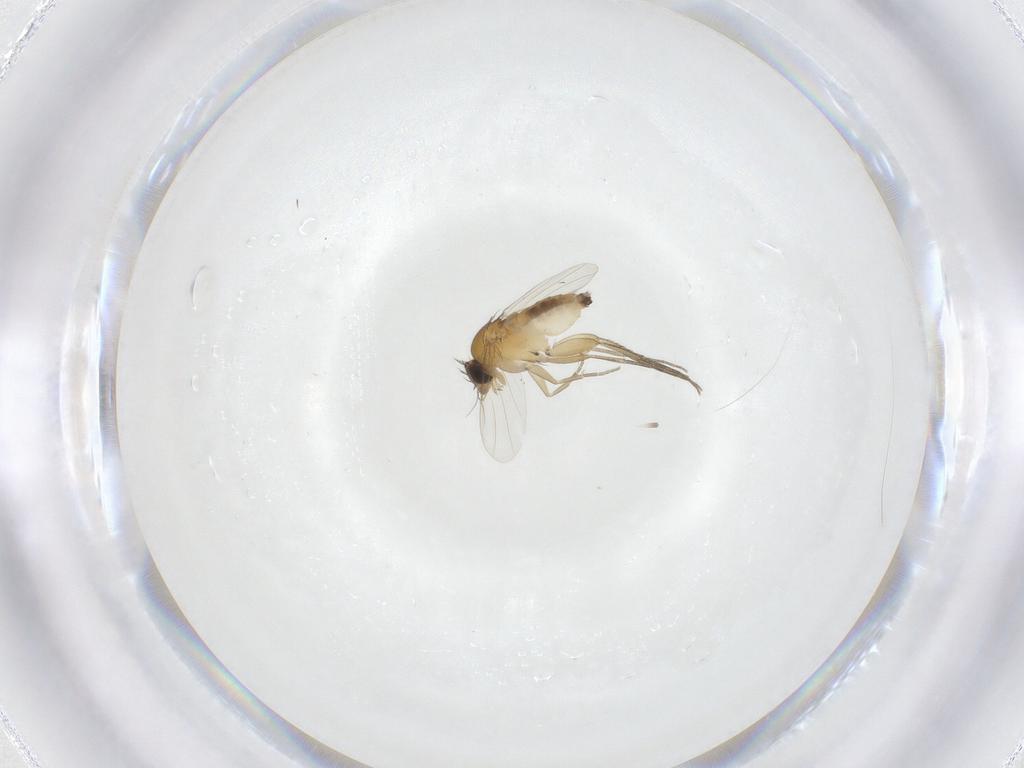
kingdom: Animalia
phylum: Arthropoda
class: Insecta
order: Diptera
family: Phoridae
